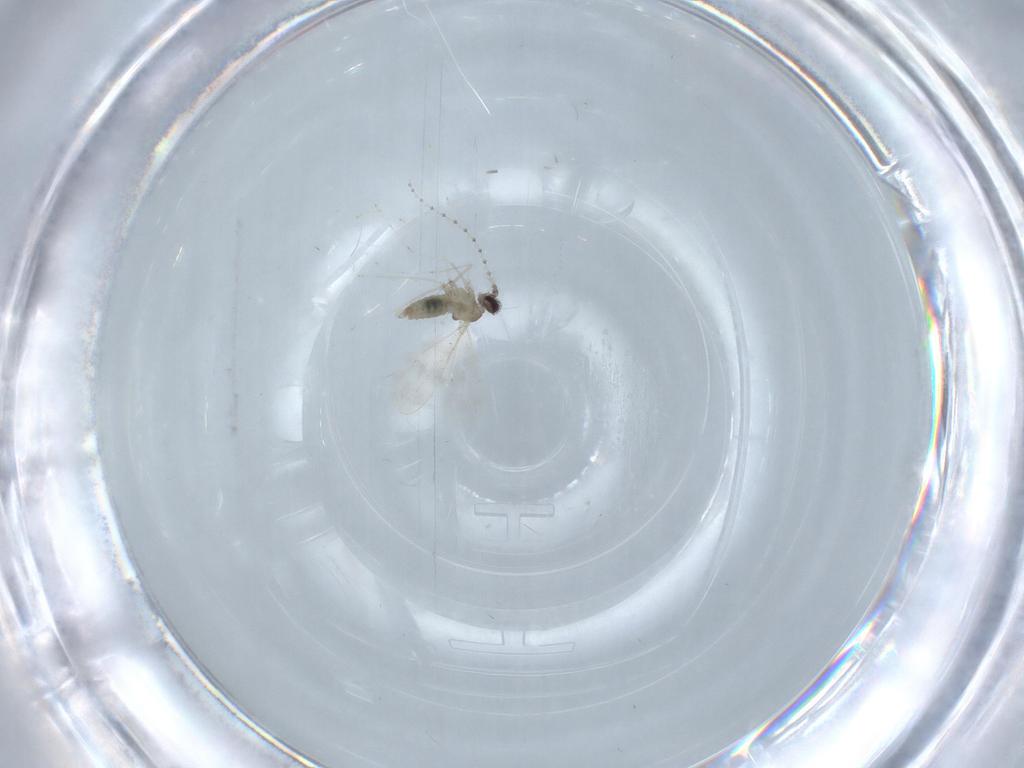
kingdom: Animalia
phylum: Arthropoda
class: Insecta
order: Diptera
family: Cecidomyiidae
